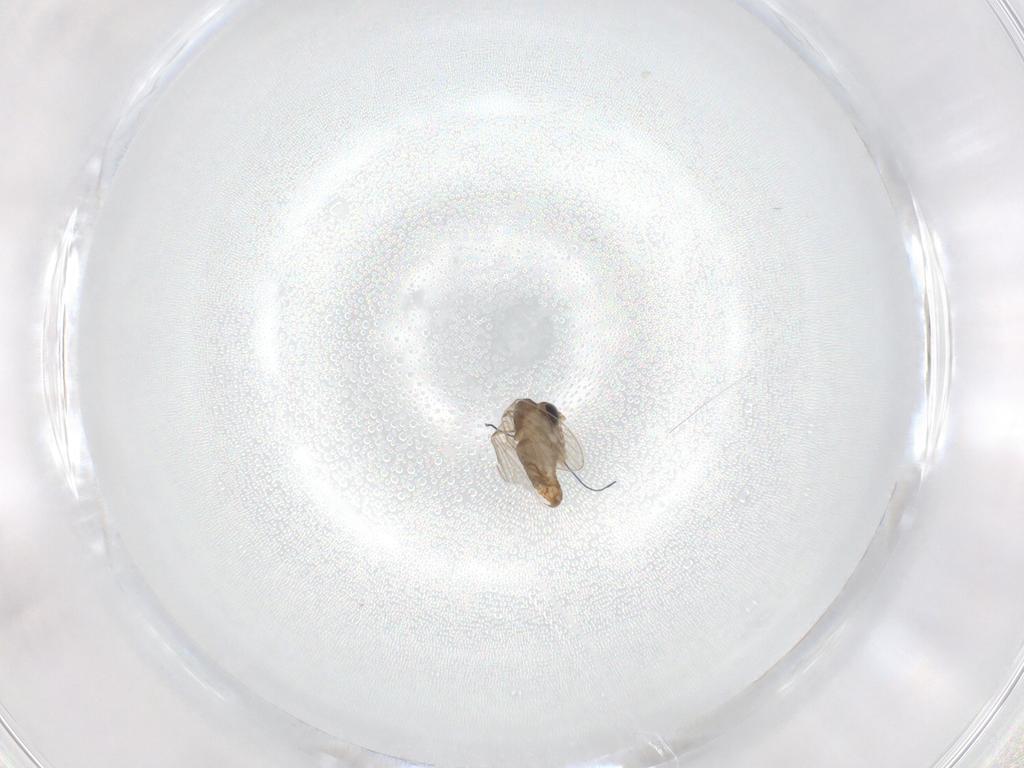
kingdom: Animalia
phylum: Arthropoda
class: Insecta
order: Diptera
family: Psychodidae
